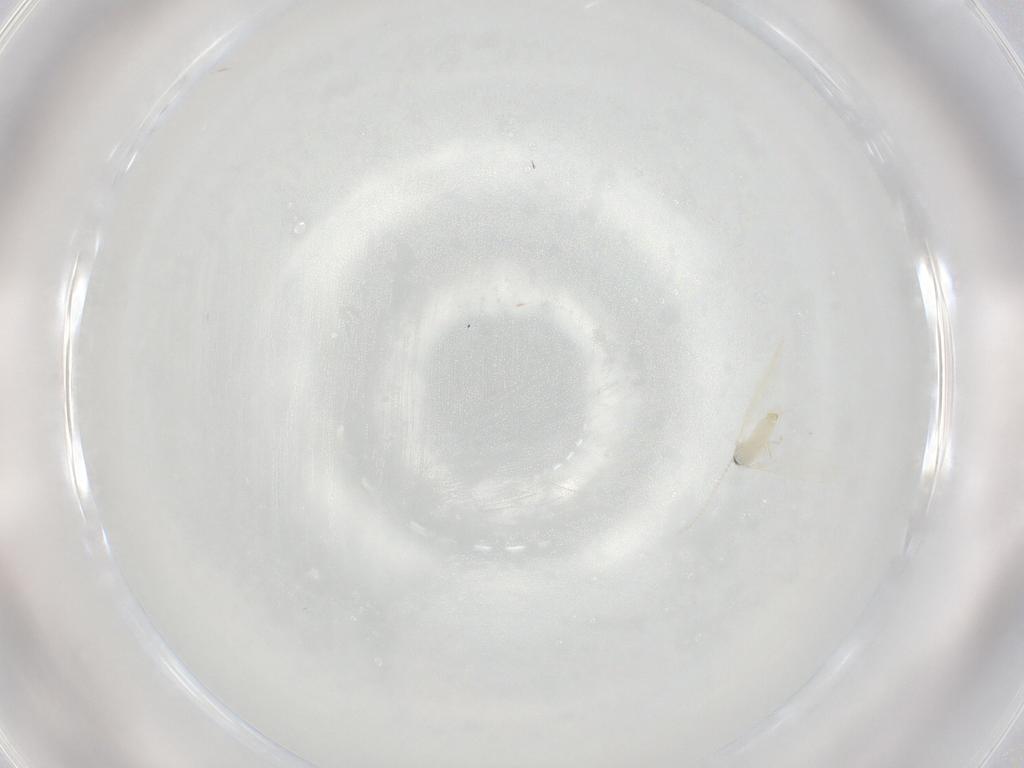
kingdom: Animalia
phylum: Arthropoda
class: Insecta
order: Diptera
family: Cecidomyiidae
